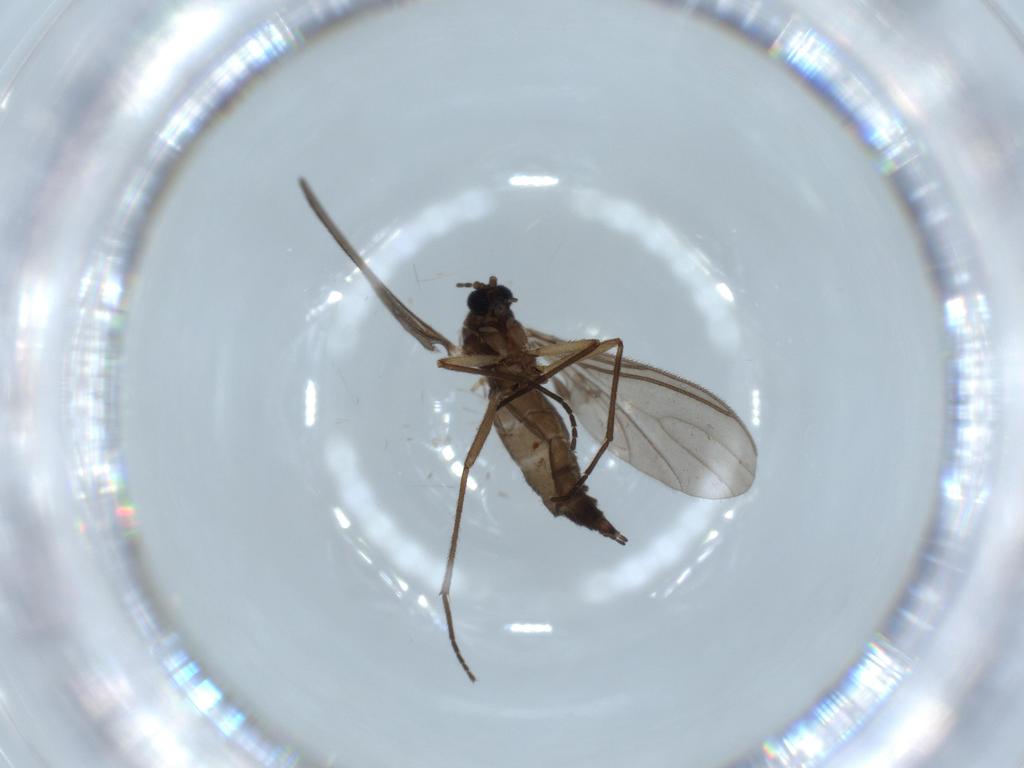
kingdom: Animalia
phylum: Arthropoda
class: Insecta
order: Diptera
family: Sciaridae
